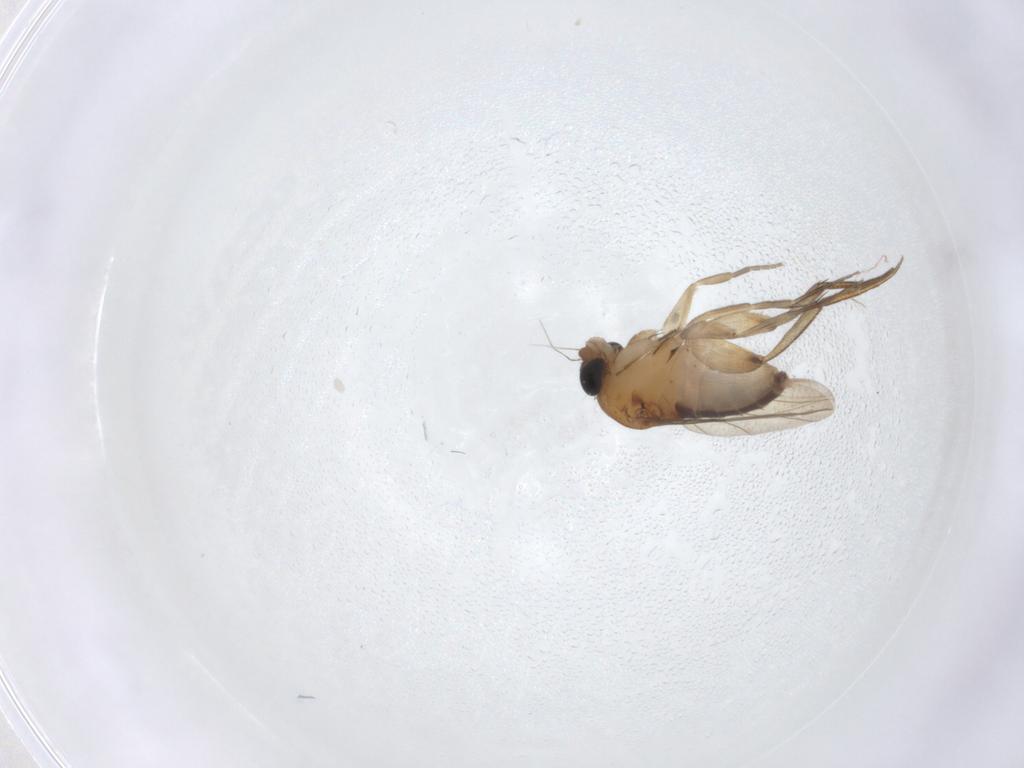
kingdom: Animalia
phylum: Arthropoda
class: Insecta
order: Diptera
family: Phoridae
